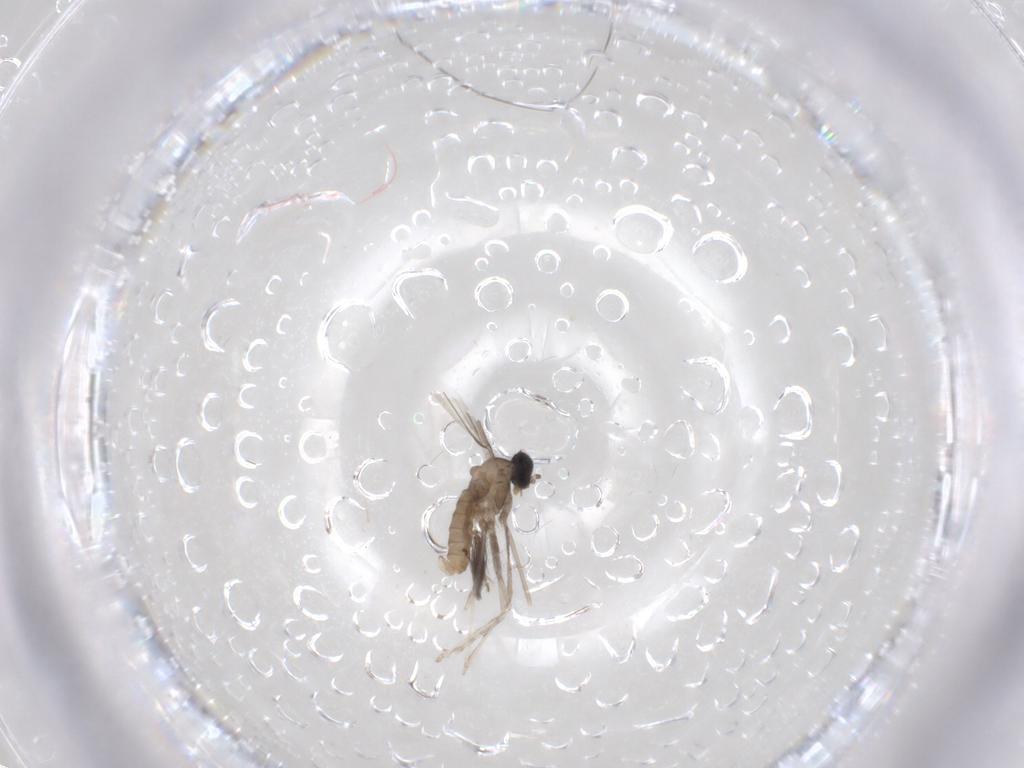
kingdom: Animalia
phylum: Arthropoda
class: Insecta
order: Diptera
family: Cecidomyiidae
